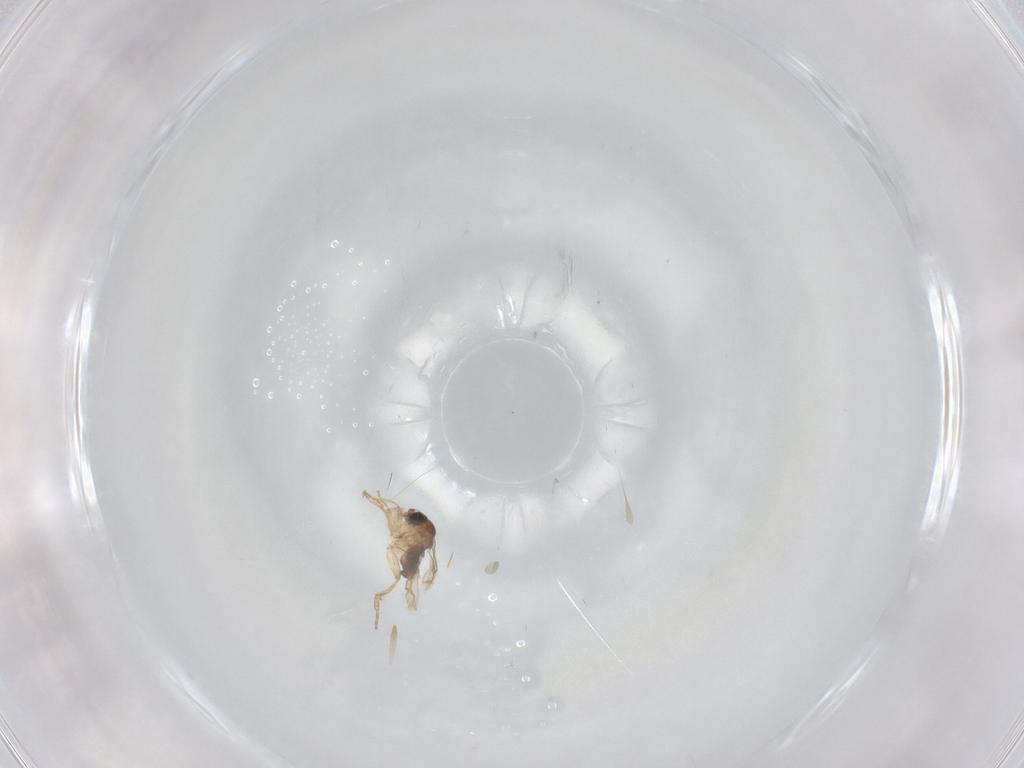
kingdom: Animalia
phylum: Arthropoda
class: Insecta
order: Diptera
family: Phoridae
